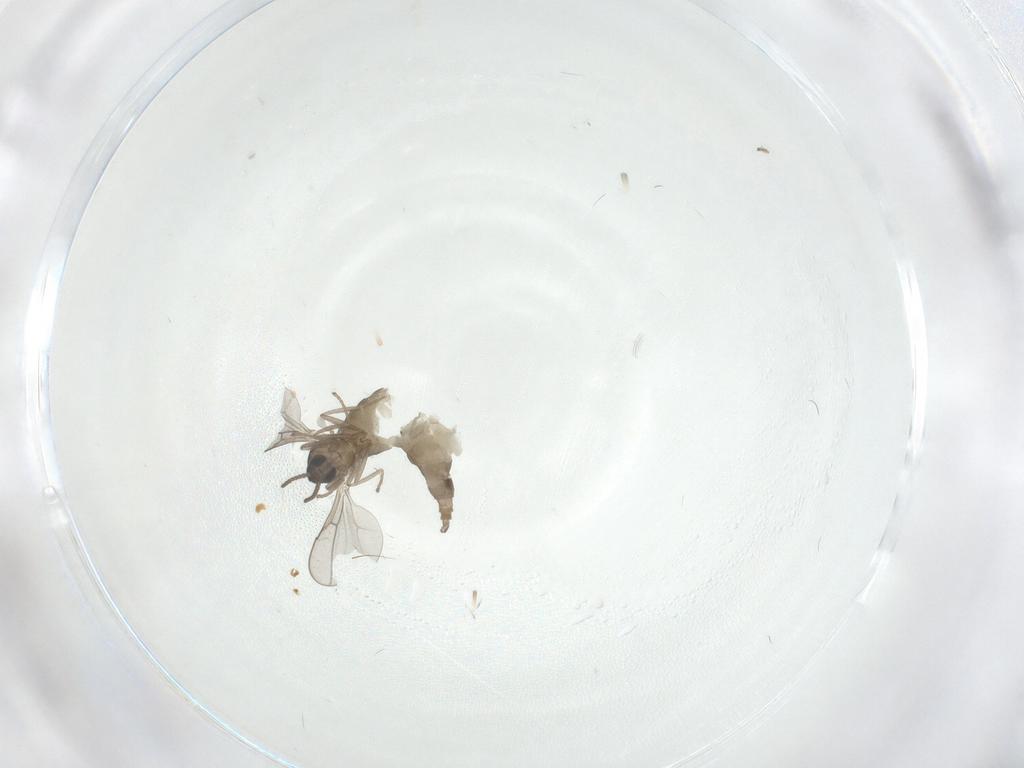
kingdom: Animalia
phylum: Arthropoda
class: Insecta
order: Diptera
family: Cecidomyiidae
